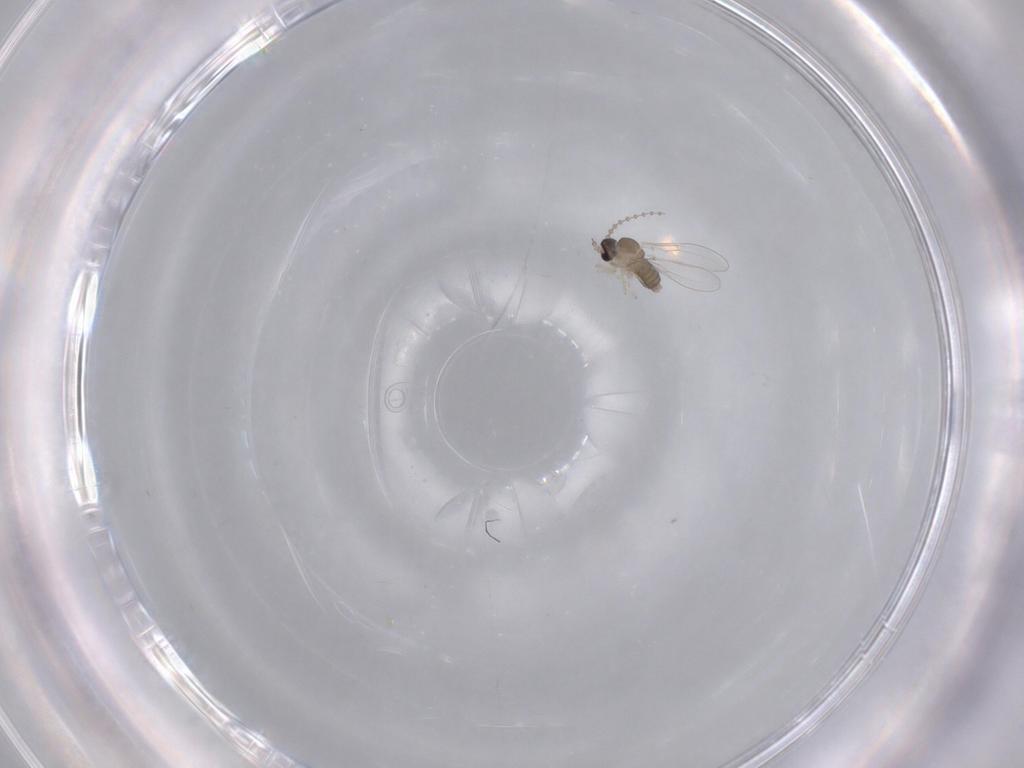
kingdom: Animalia
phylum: Arthropoda
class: Insecta
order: Diptera
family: Cecidomyiidae
